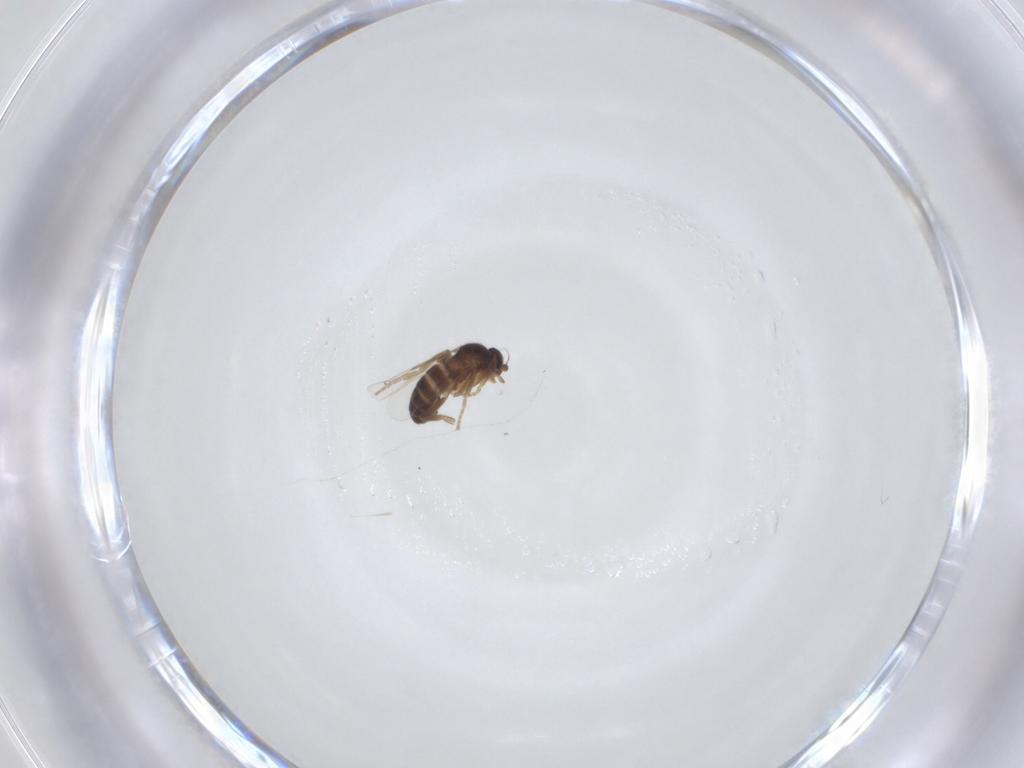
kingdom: Animalia
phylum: Arthropoda
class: Insecta
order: Diptera
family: Phoridae
